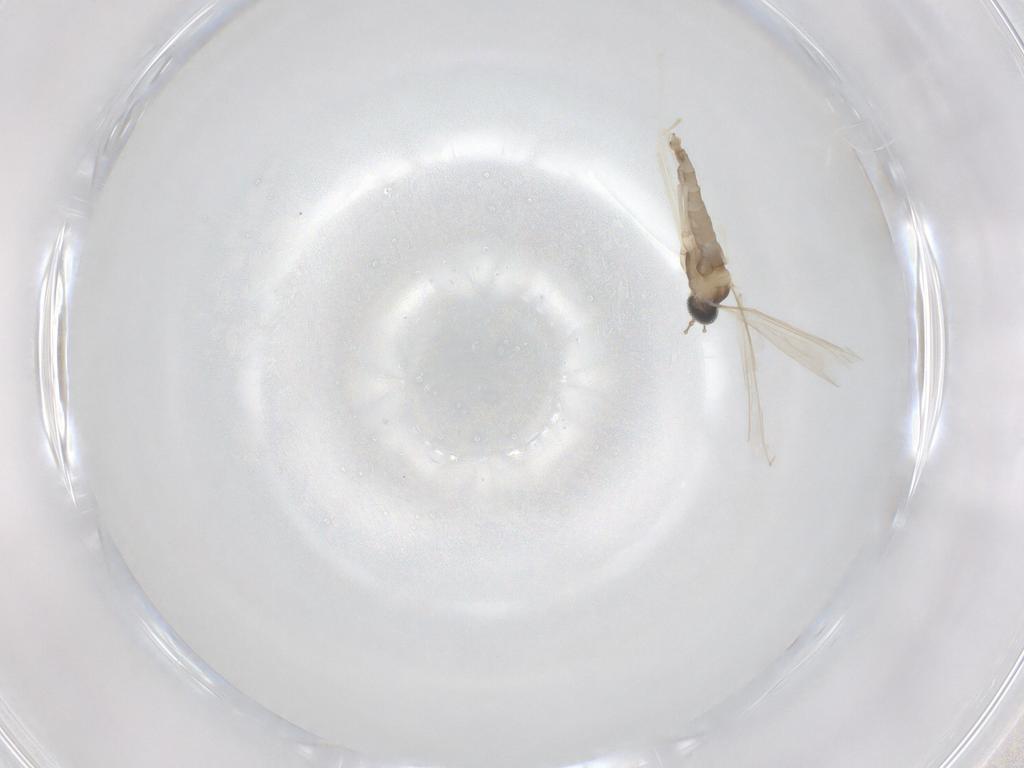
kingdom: Animalia
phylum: Arthropoda
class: Insecta
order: Diptera
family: Cecidomyiidae
